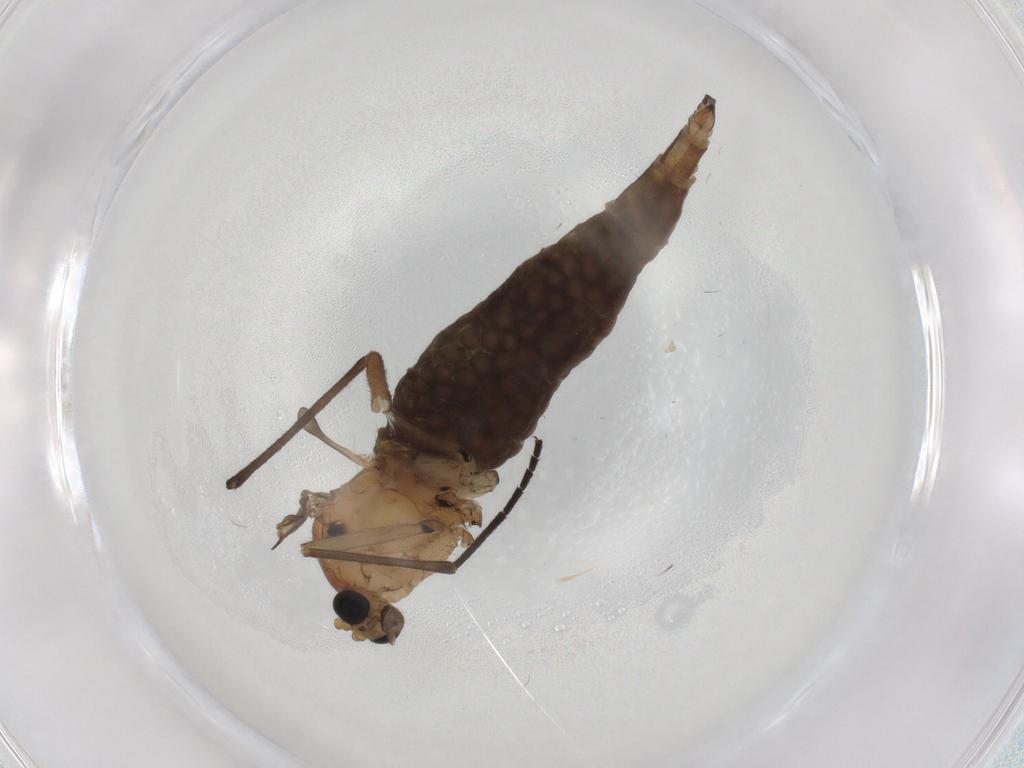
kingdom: Animalia
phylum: Arthropoda
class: Insecta
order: Diptera
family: Sciaridae
